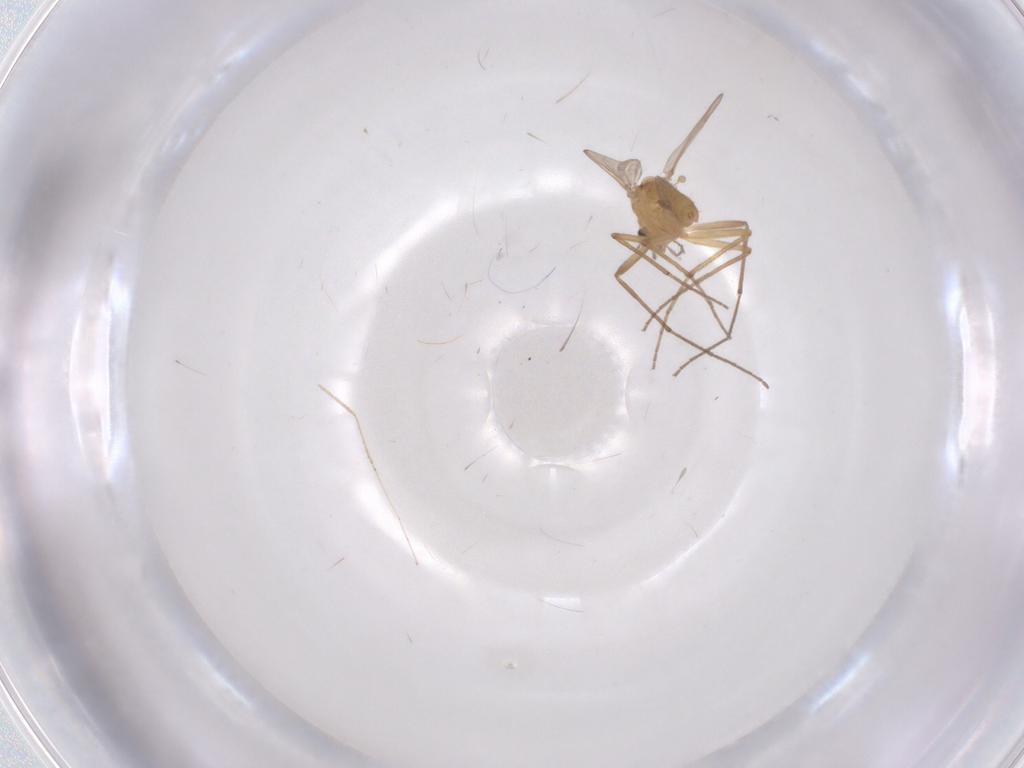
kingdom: Animalia
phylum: Arthropoda
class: Insecta
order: Diptera
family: Chironomidae
